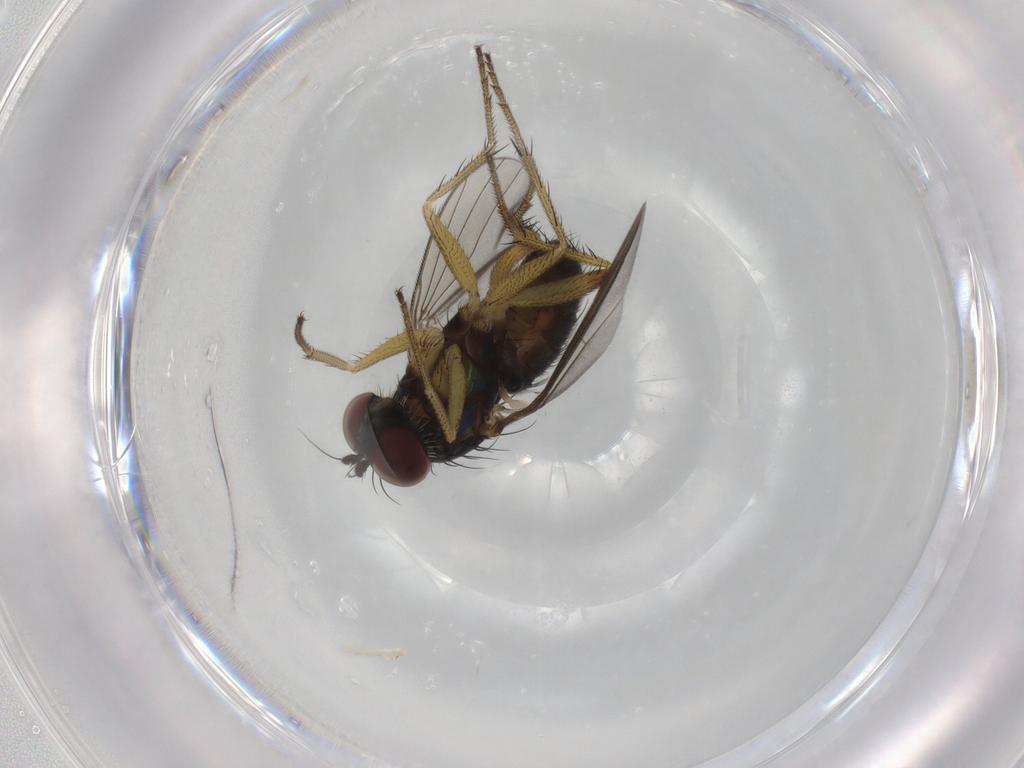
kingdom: Animalia
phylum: Arthropoda
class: Insecta
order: Diptera
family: Dolichopodidae
